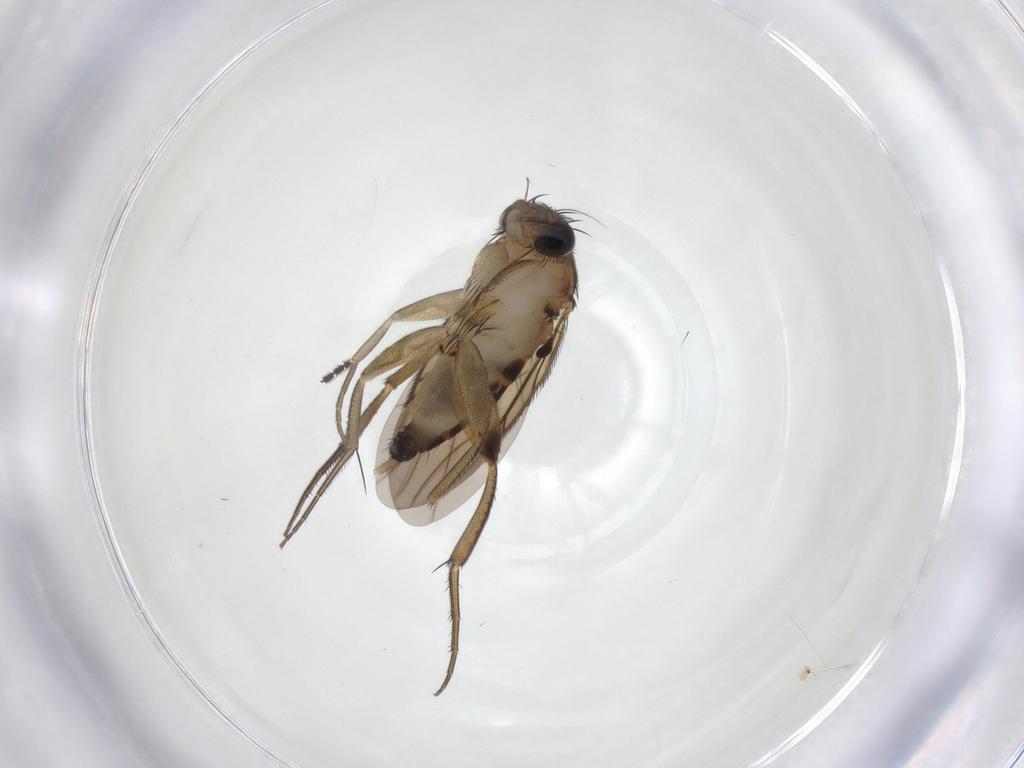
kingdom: Animalia
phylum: Arthropoda
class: Insecta
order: Diptera
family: Phoridae
